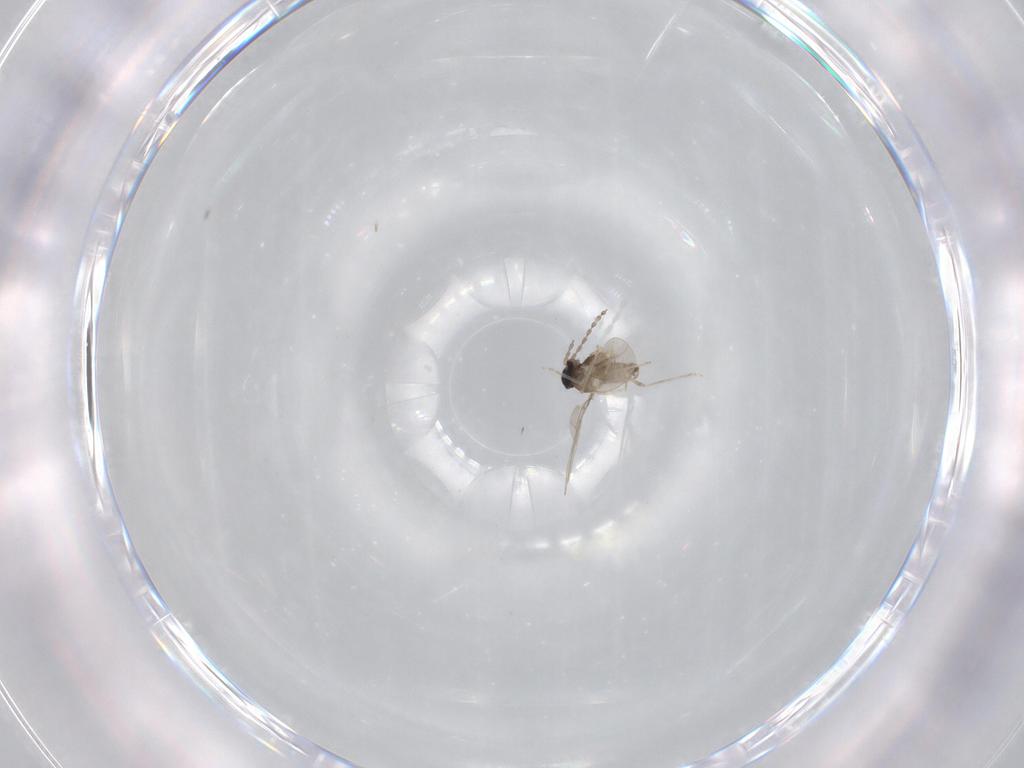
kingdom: Animalia
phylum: Arthropoda
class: Insecta
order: Diptera
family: Cecidomyiidae
